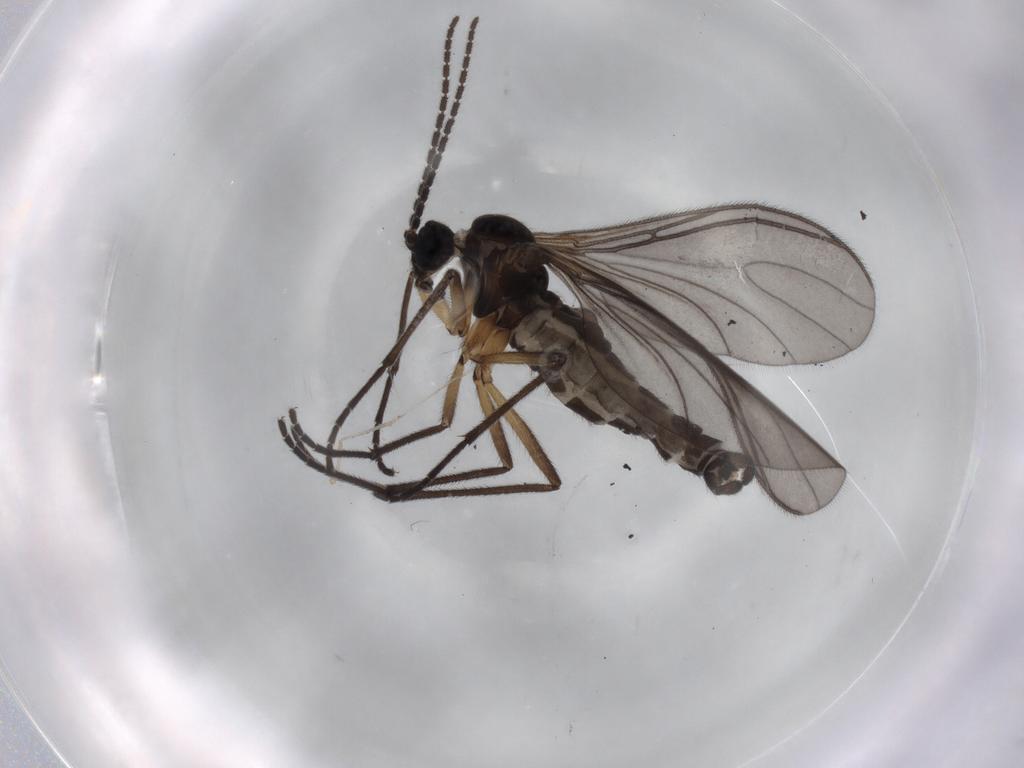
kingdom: Animalia
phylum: Arthropoda
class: Insecta
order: Diptera
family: Sciaridae
